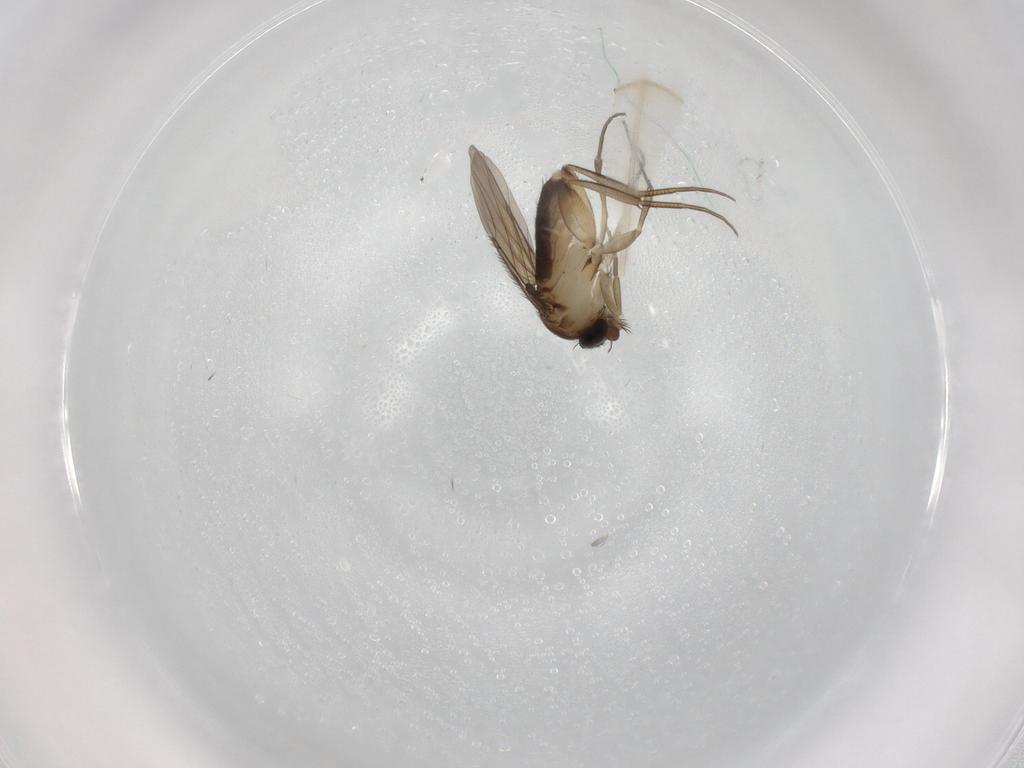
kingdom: Animalia
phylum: Arthropoda
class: Insecta
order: Diptera
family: Phoridae
